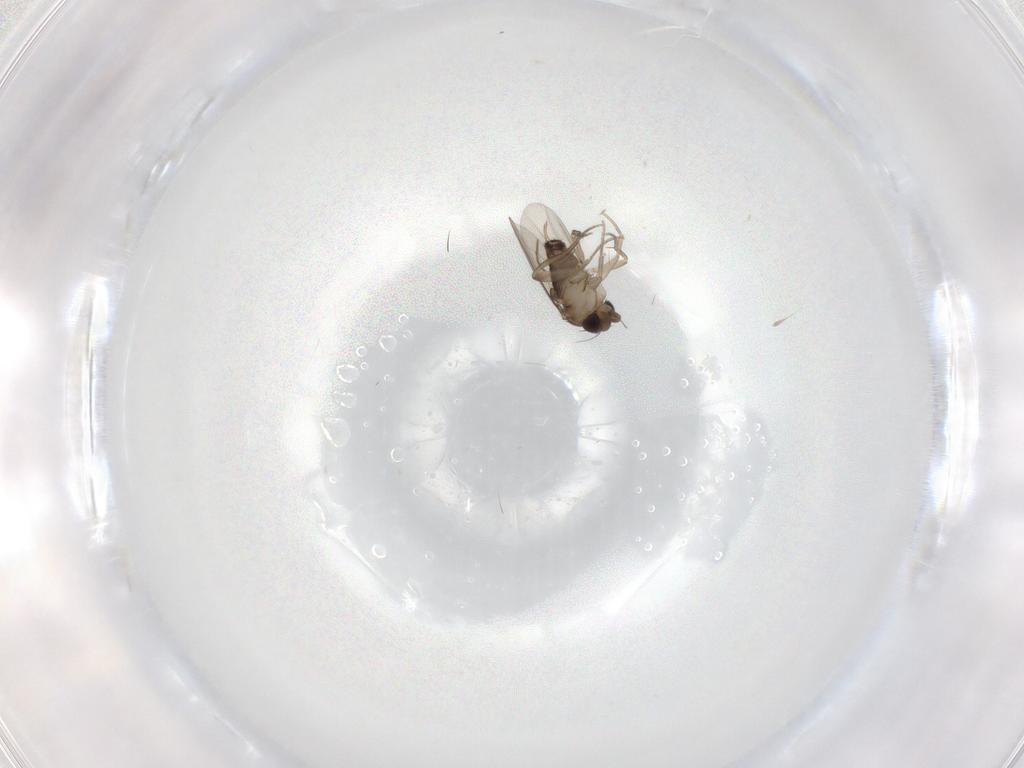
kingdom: Animalia
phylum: Arthropoda
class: Insecta
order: Diptera
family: Phoridae
